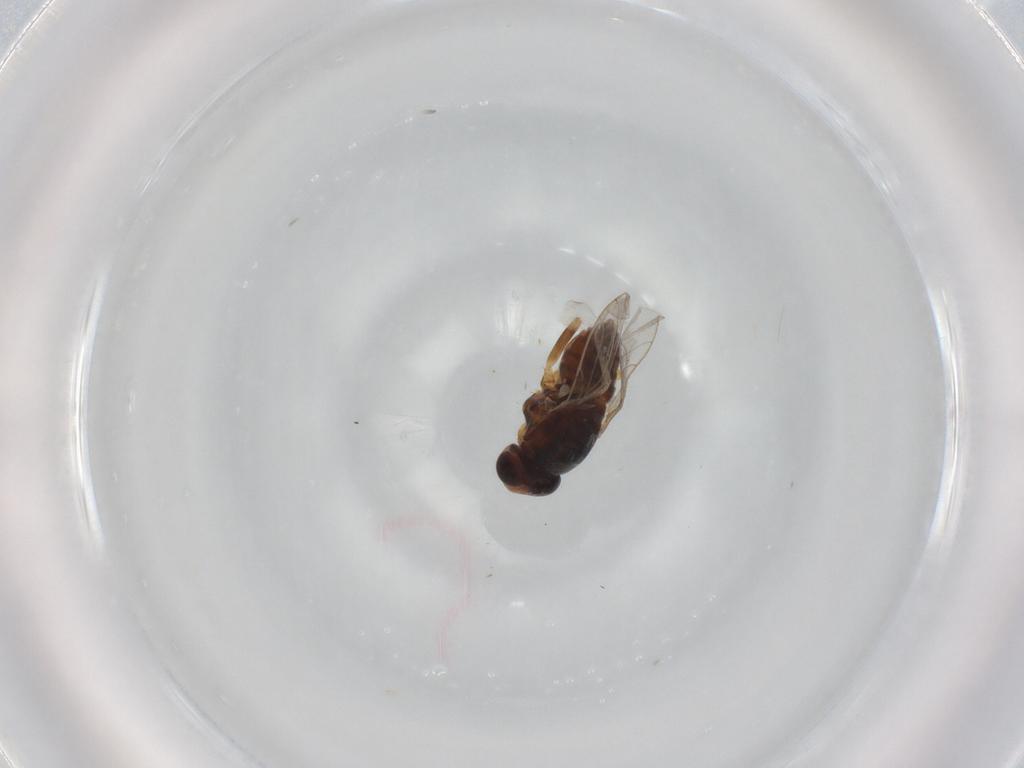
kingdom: Animalia
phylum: Arthropoda
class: Insecta
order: Diptera
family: Chloropidae
